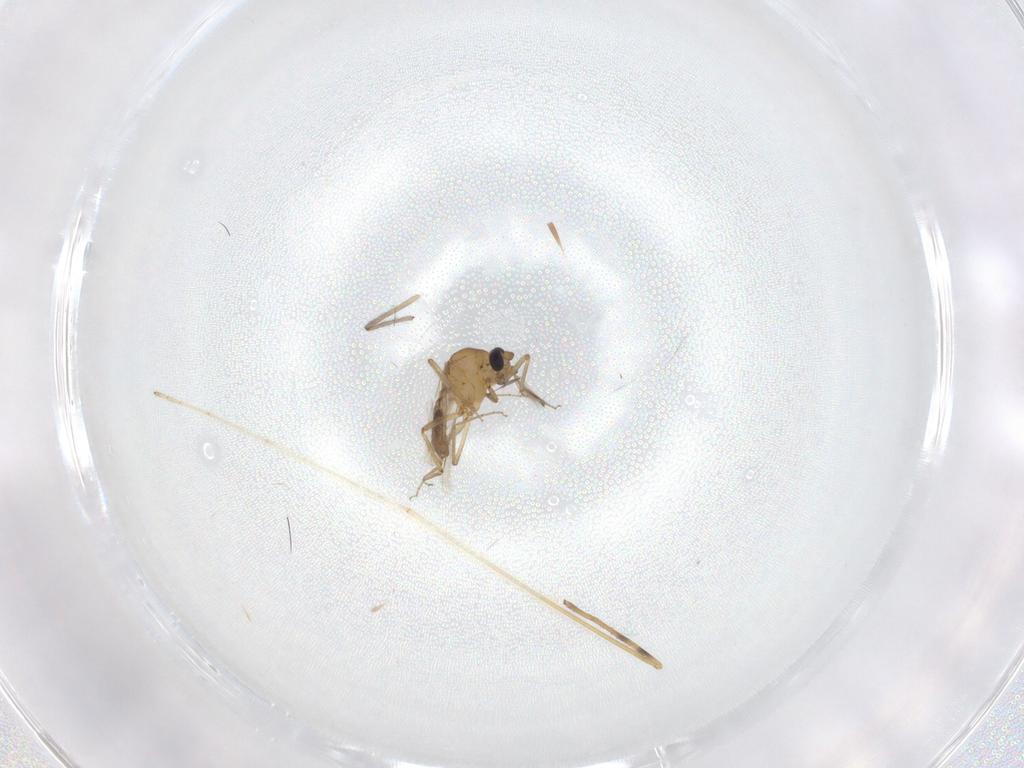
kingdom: Animalia
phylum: Arthropoda
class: Insecta
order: Diptera
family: Limoniidae
